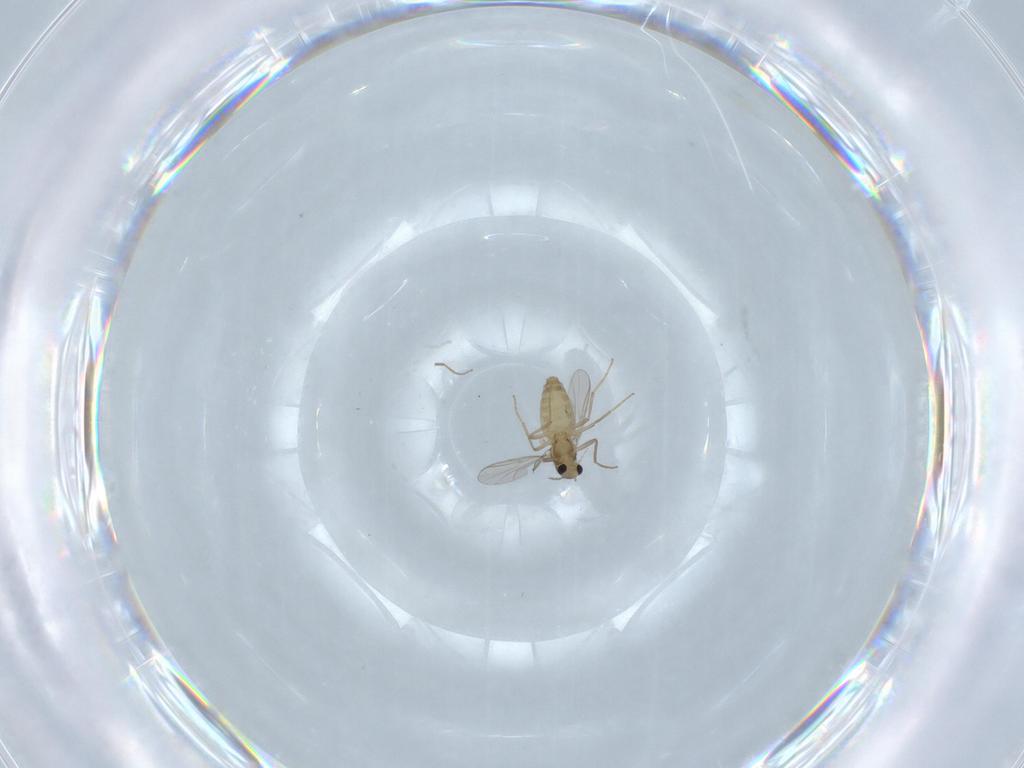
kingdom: Animalia
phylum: Arthropoda
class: Insecta
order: Diptera
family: Chironomidae
